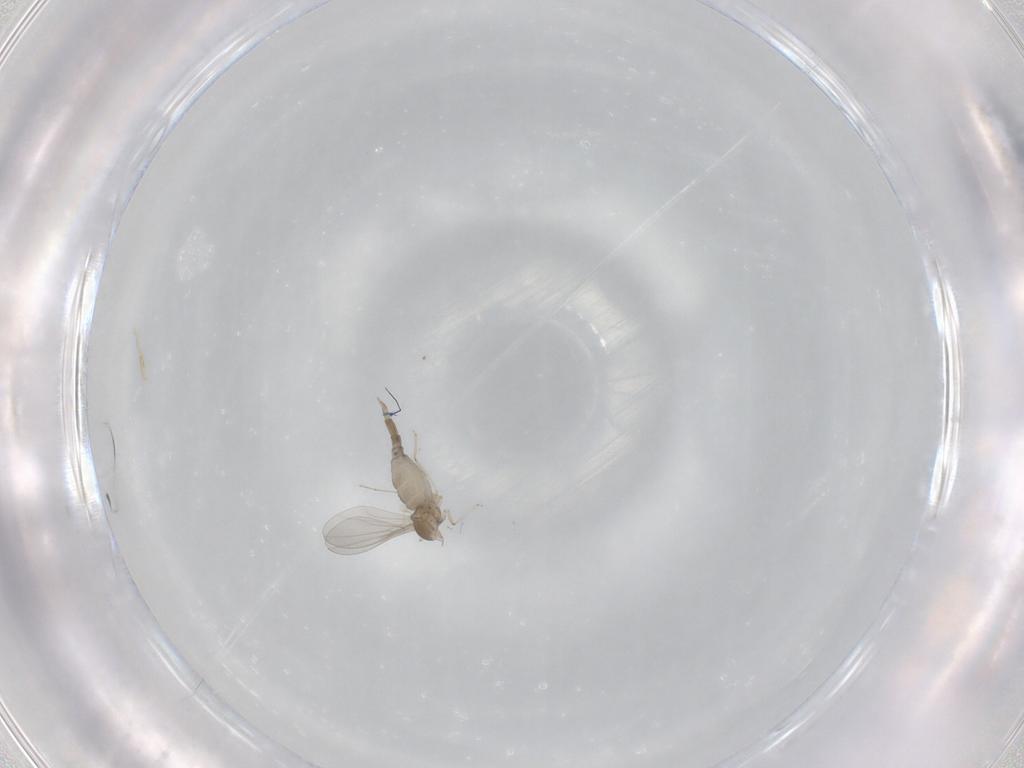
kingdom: Animalia
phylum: Arthropoda
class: Insecta
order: Diptera
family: Cecidomyiidae
